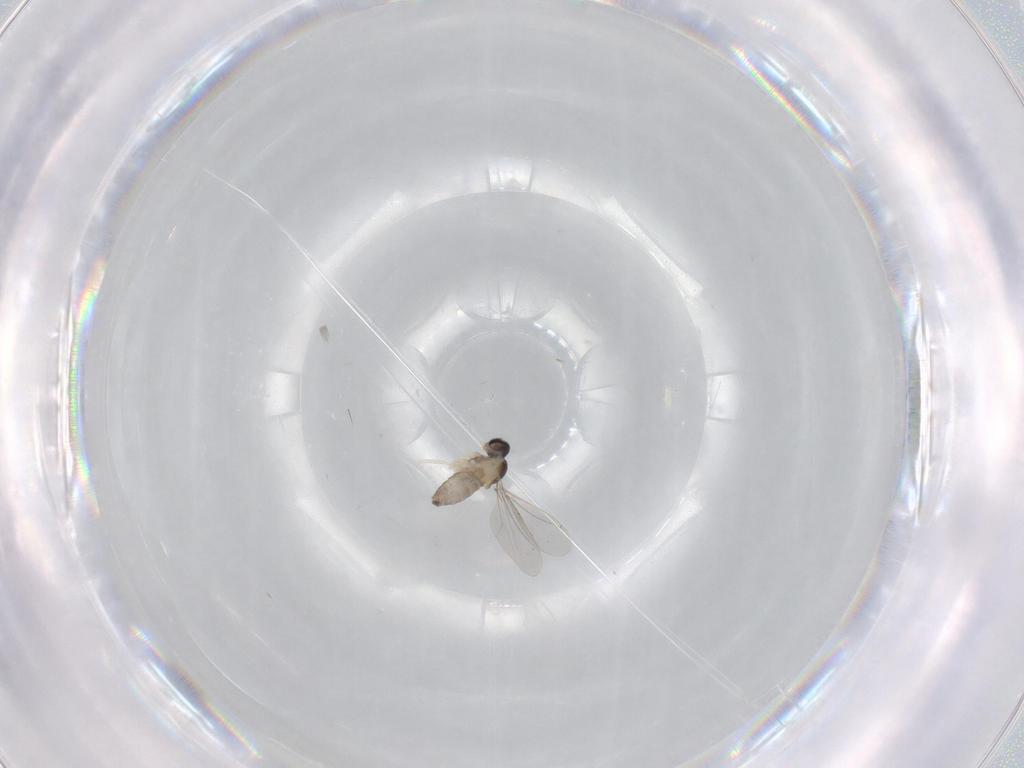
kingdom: Animalia
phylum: Arthropoda
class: Insecta
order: Diptera
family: Cecidomyiidae
